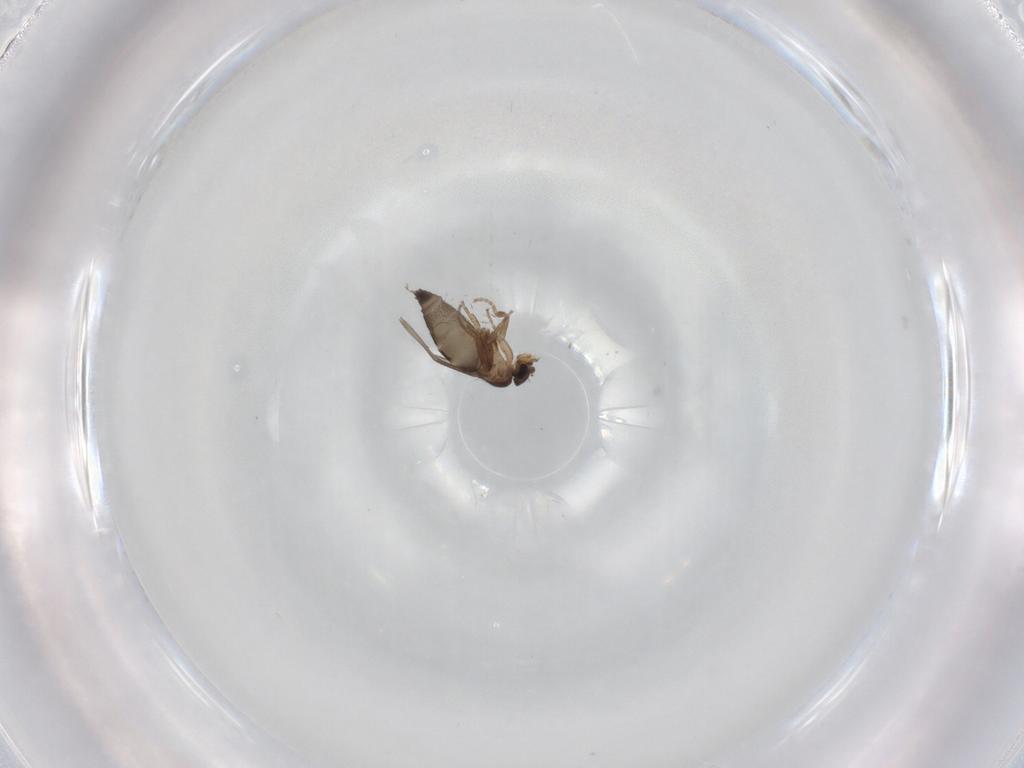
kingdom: Animalia
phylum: Arthropoda
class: Insecta
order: Diptera
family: Phoridae
